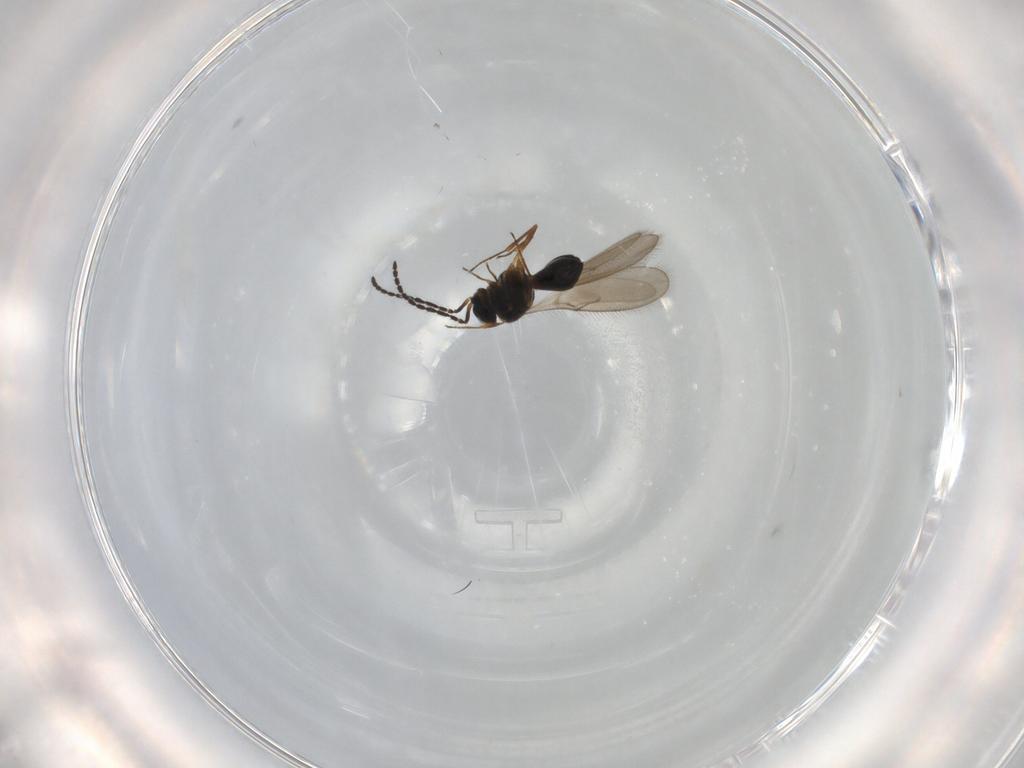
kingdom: Animalia
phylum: Arthropoda
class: Insecta
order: Hymenoptera
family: Scelionidae
